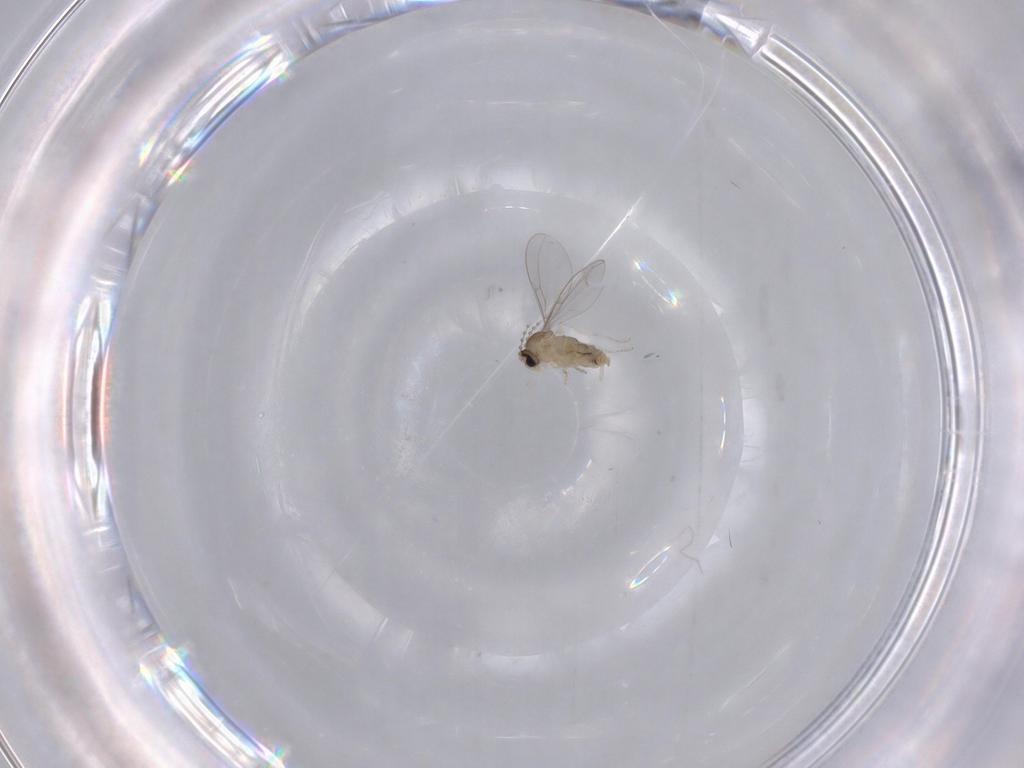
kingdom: Animalia
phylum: Arthropoda
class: Insecta
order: Diptera
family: Cecidomyiidae
